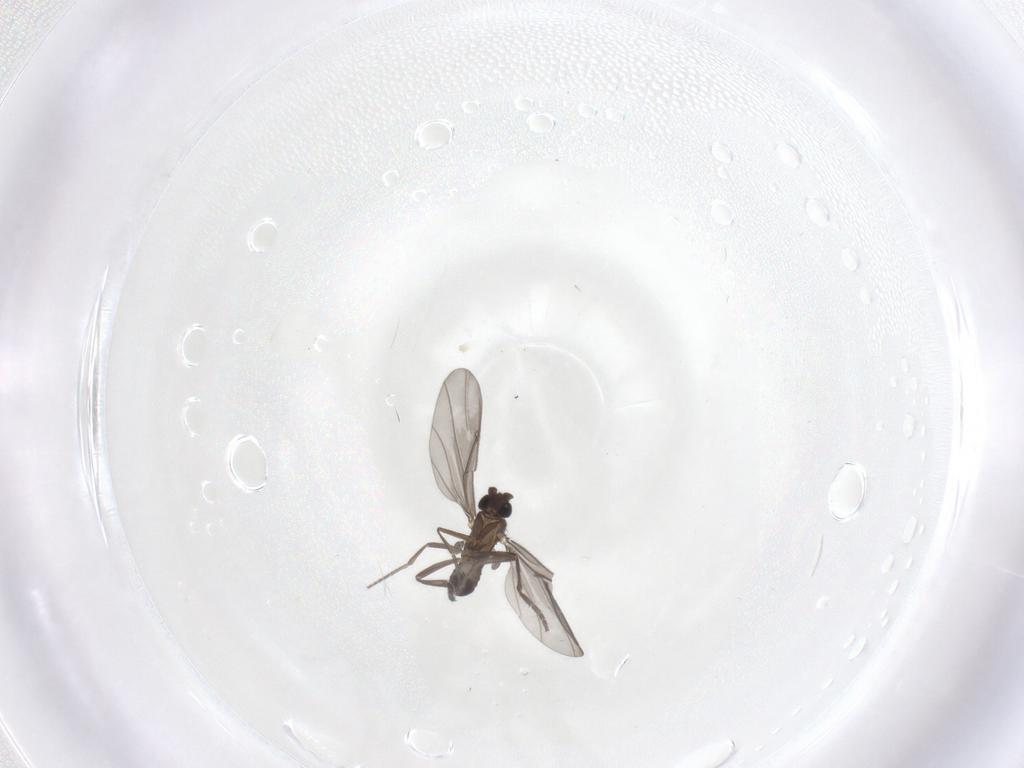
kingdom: Animalia
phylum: Arthropoda
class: Insecta
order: Diptera
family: Phoridae
